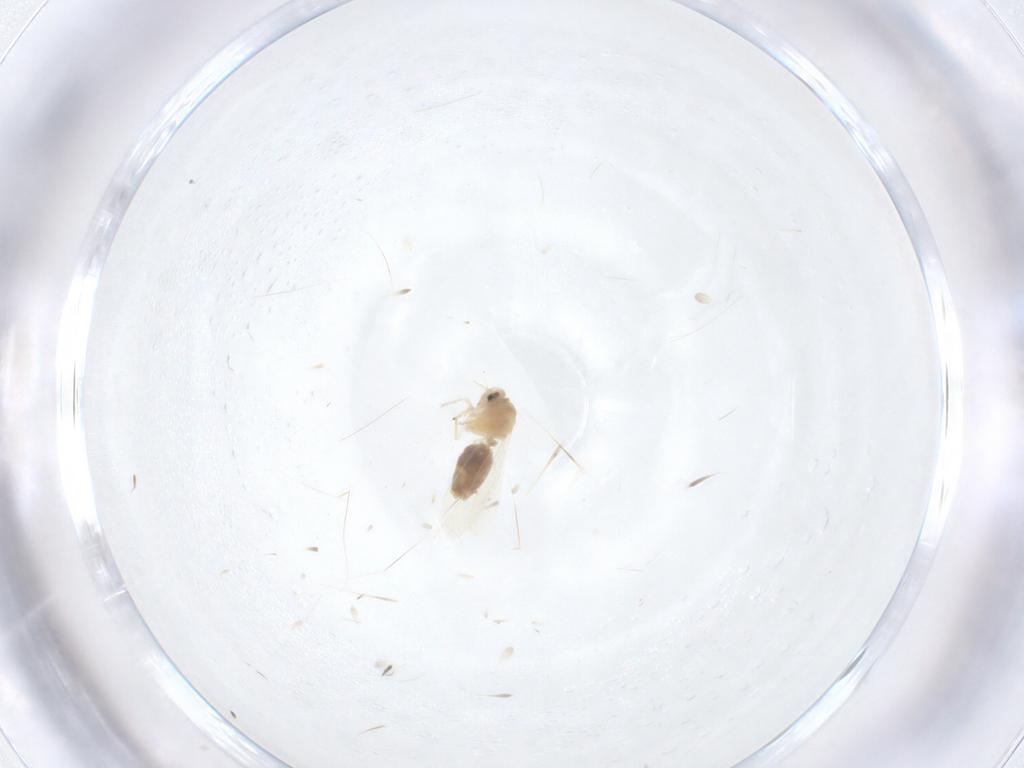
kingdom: Animalia
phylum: Arthropoda
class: Insecta
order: Hemiptera
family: Aleyrodidae
